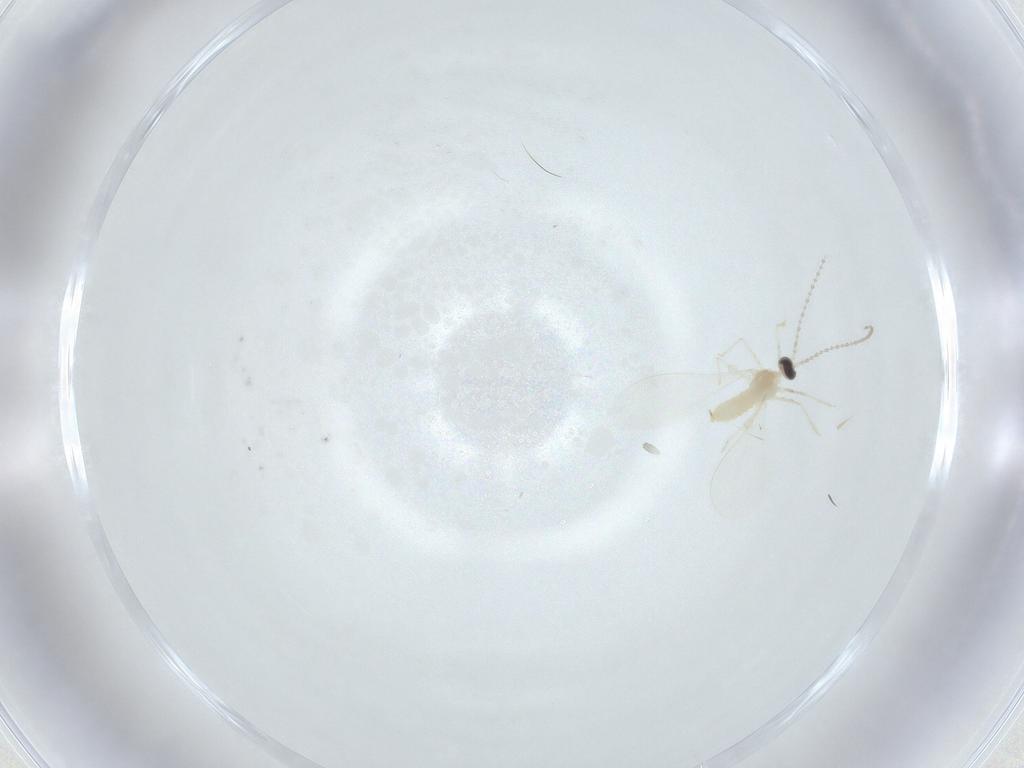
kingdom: Animalia
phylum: Arthropoda
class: Insecta
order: Diptera
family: Cecidomyiidae
